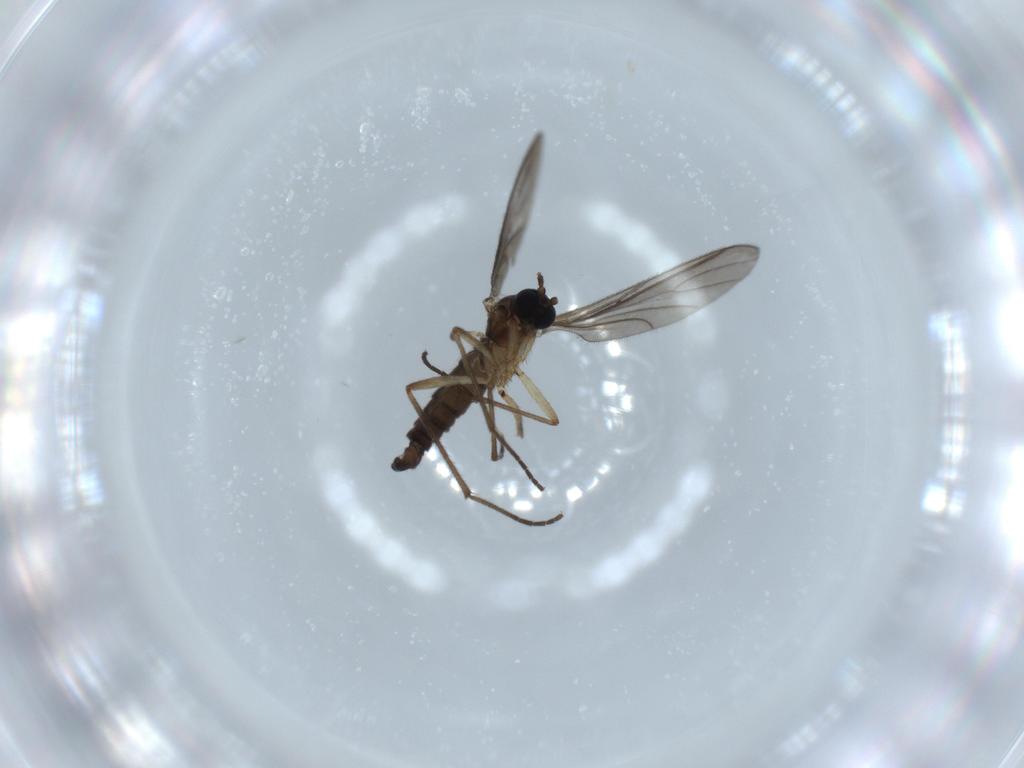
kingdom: Animalia
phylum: Arthropoda
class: Insecta
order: Diptera
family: Sciaridae
